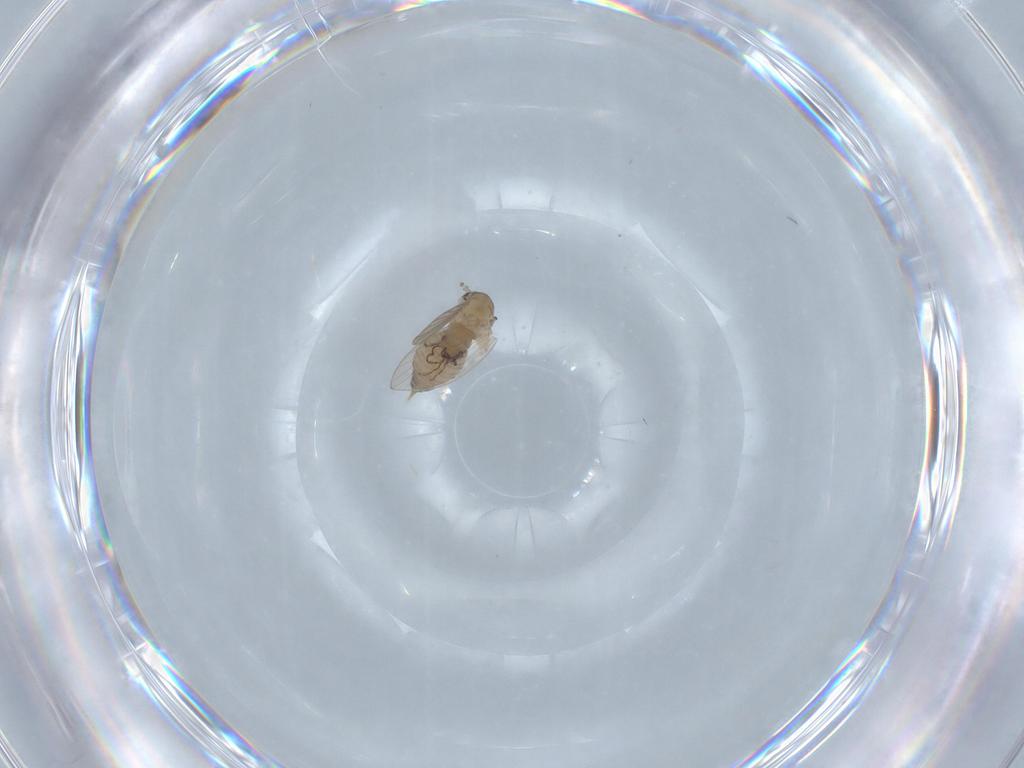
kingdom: Animalia
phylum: Arthropoda
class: Insecta
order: Diptera
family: Psychodidae
